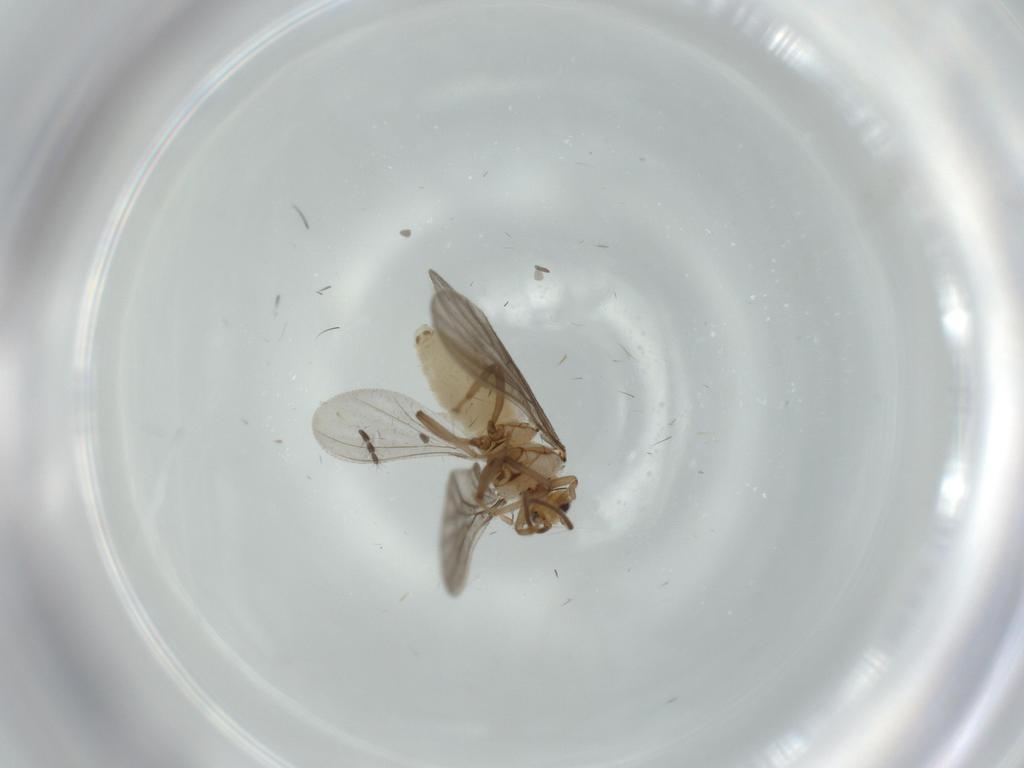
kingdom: Animalia
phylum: Arthropoda
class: Insecta
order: Neuroptera
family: Coniopterygidae
